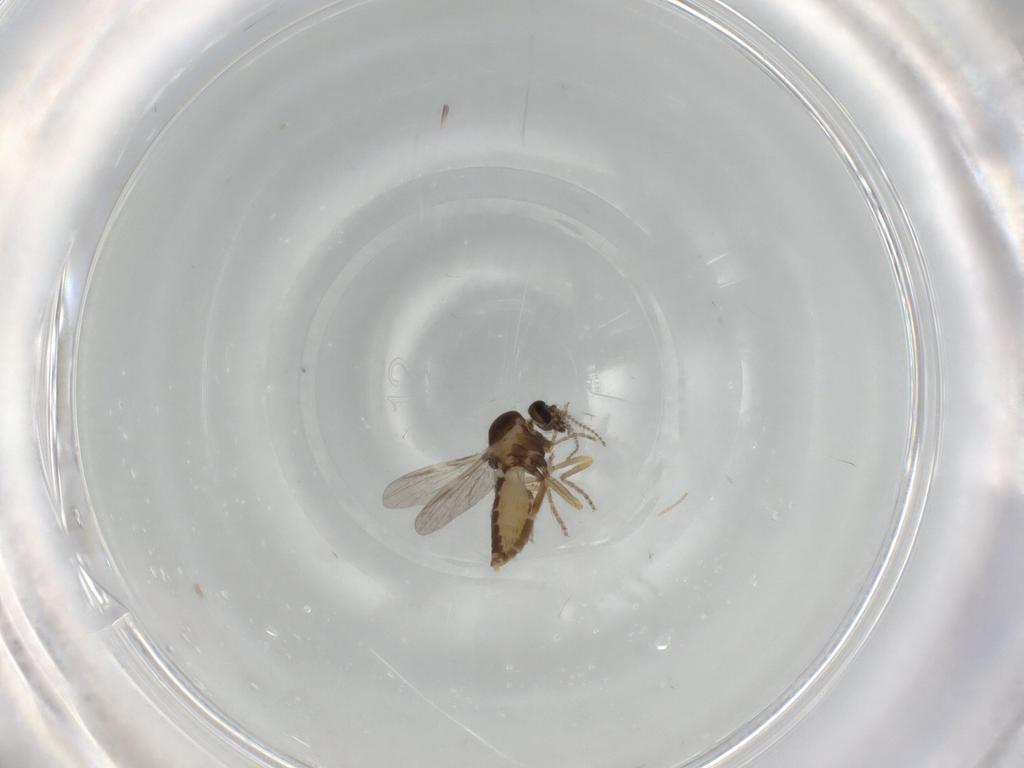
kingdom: Animalia
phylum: Arthropoda
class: Insecta
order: Diptera
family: Ceratopogonidae
